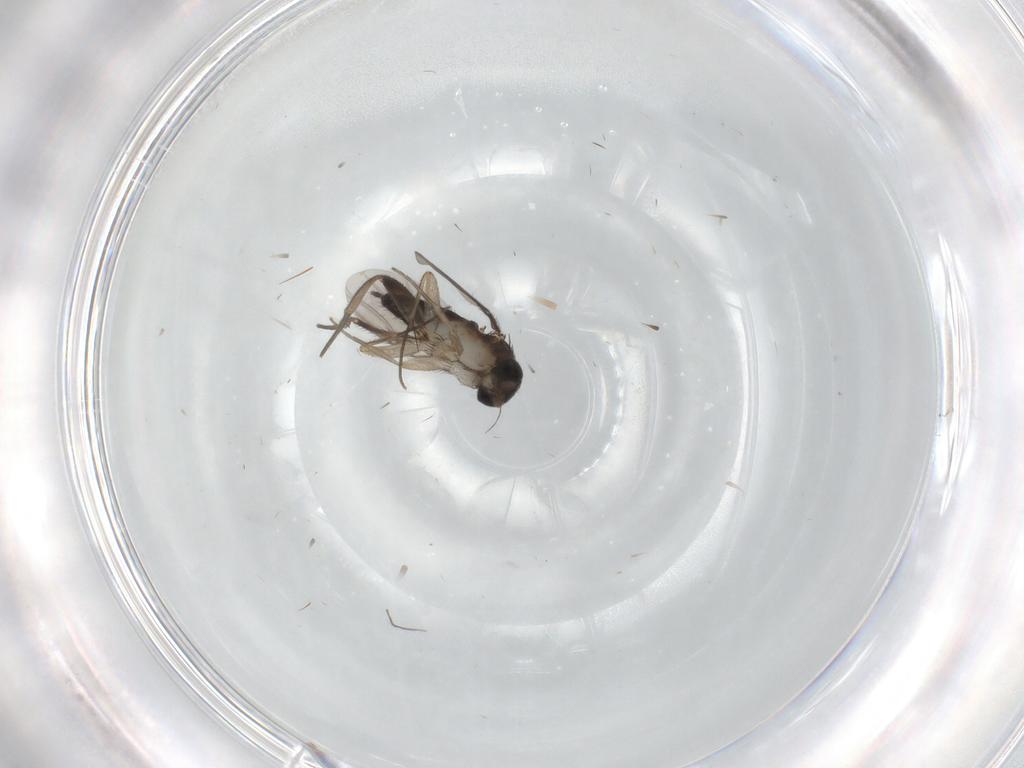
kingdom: Animalia
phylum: Arthropoda
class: Insecta
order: Diptera
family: Phoridae
